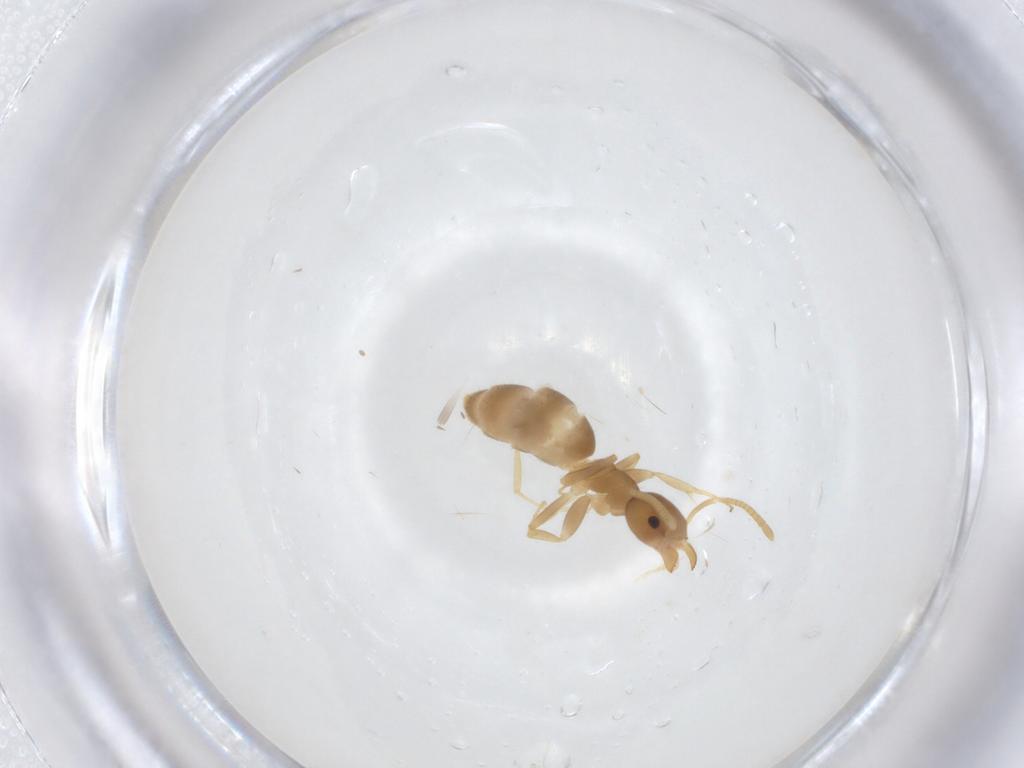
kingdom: Animalia
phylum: Arthropoda
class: Insecta
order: Hymenoptera
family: Formicidae
